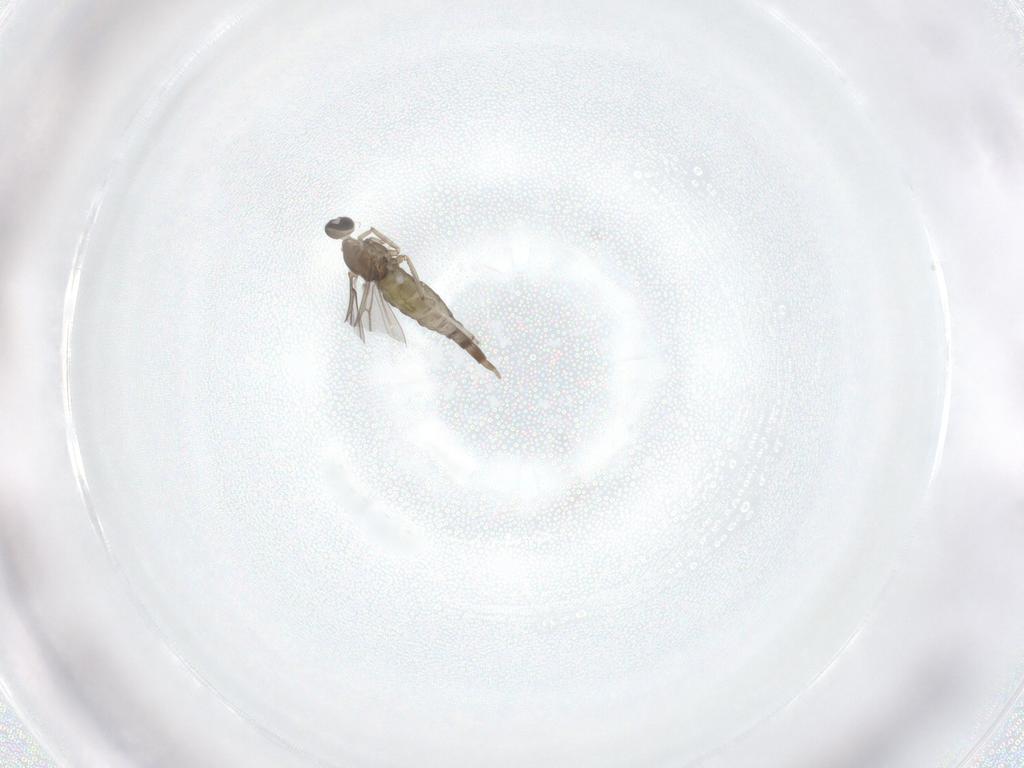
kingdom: Animalia
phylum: Arthropoda
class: Insecta
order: Diptera
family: Cecidomyiidae
